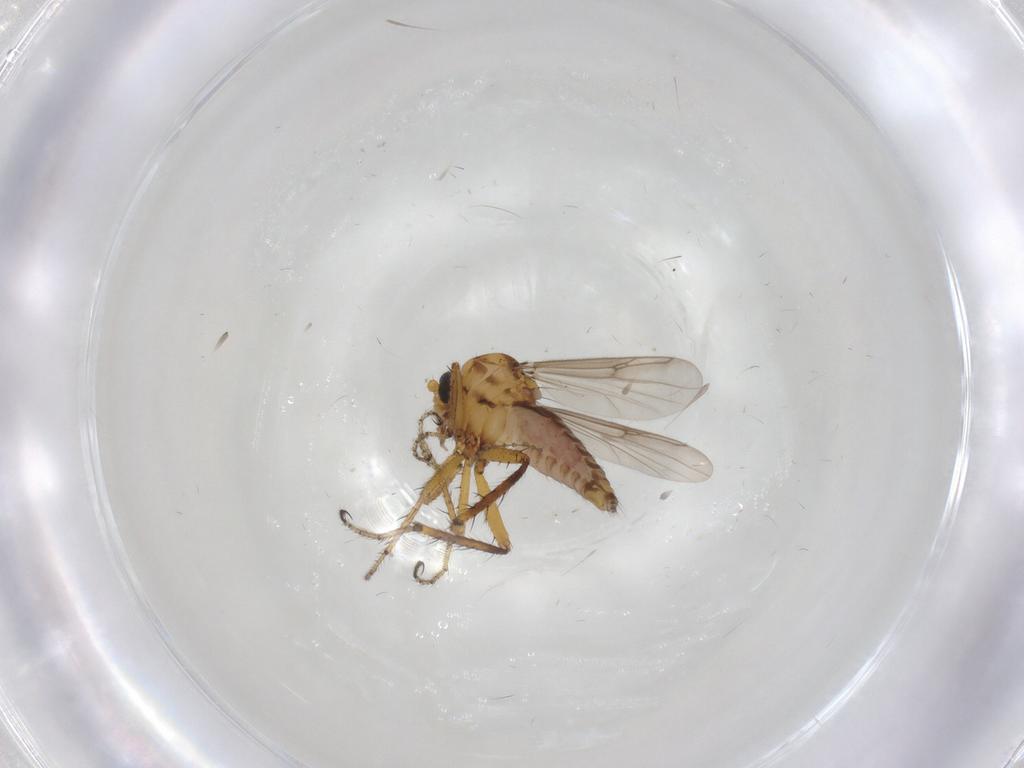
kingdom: Animalia
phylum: Arthropoda
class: Insecta
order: Diptera
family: Ceratopogonidae
